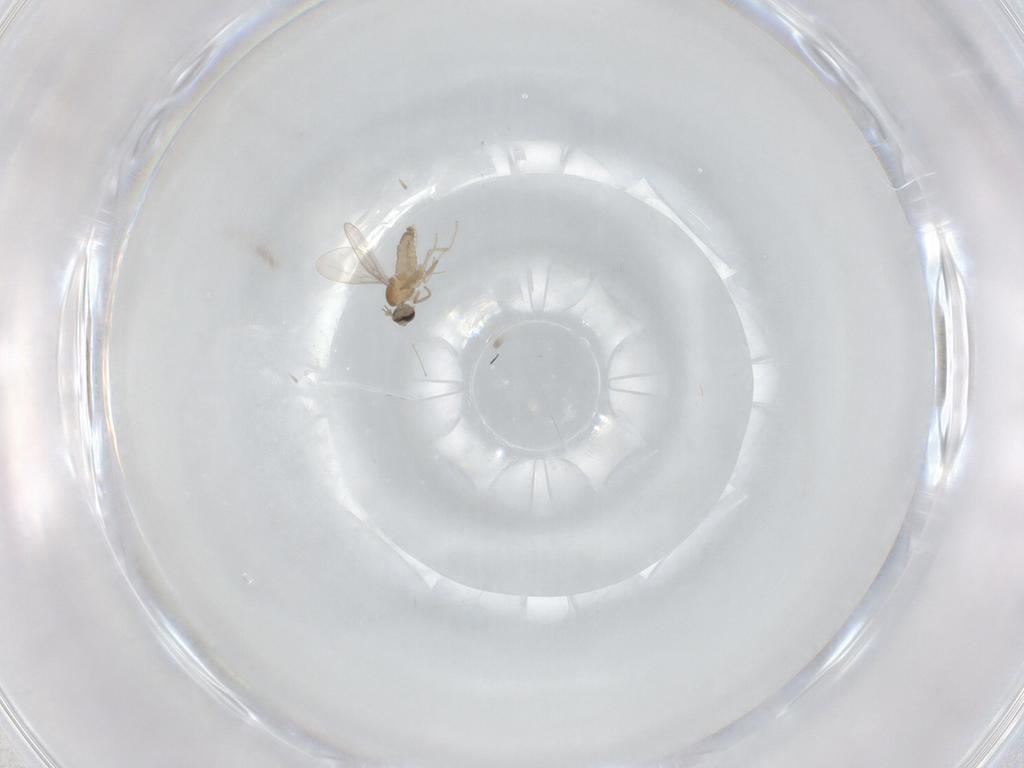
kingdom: Animalia
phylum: Arthropoda
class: Insecta
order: Diptera
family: Cecidomyiidae
